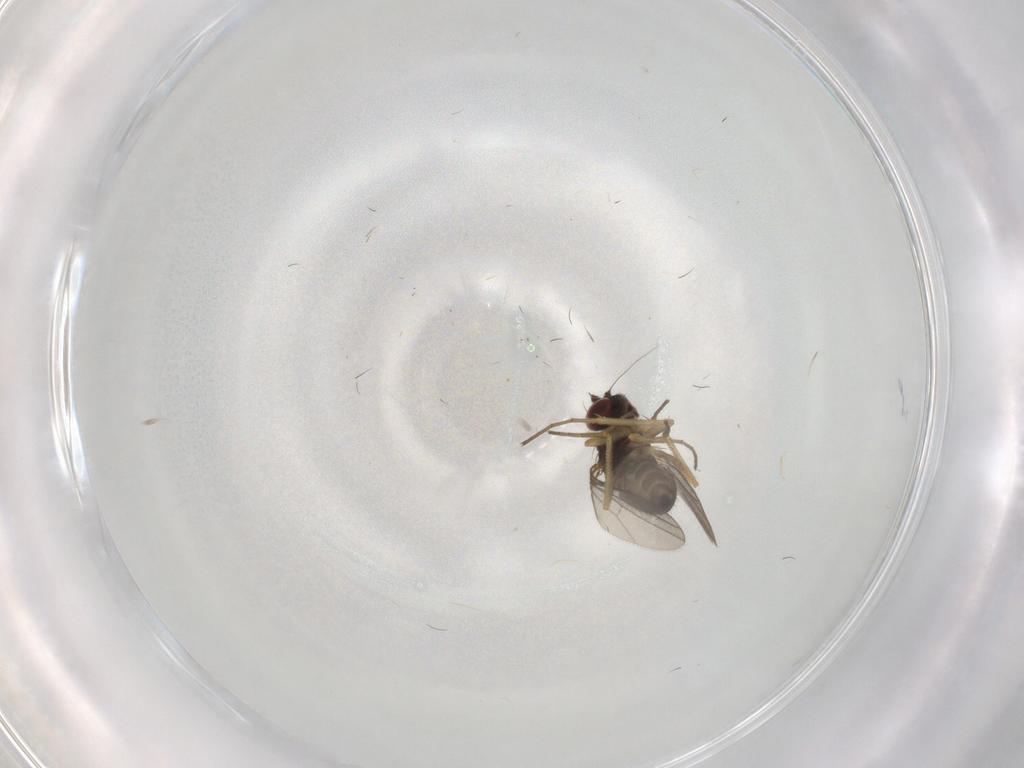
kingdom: Animalia
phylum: Arthropoda
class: Insecta
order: Diptera
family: Dolichopodidae
